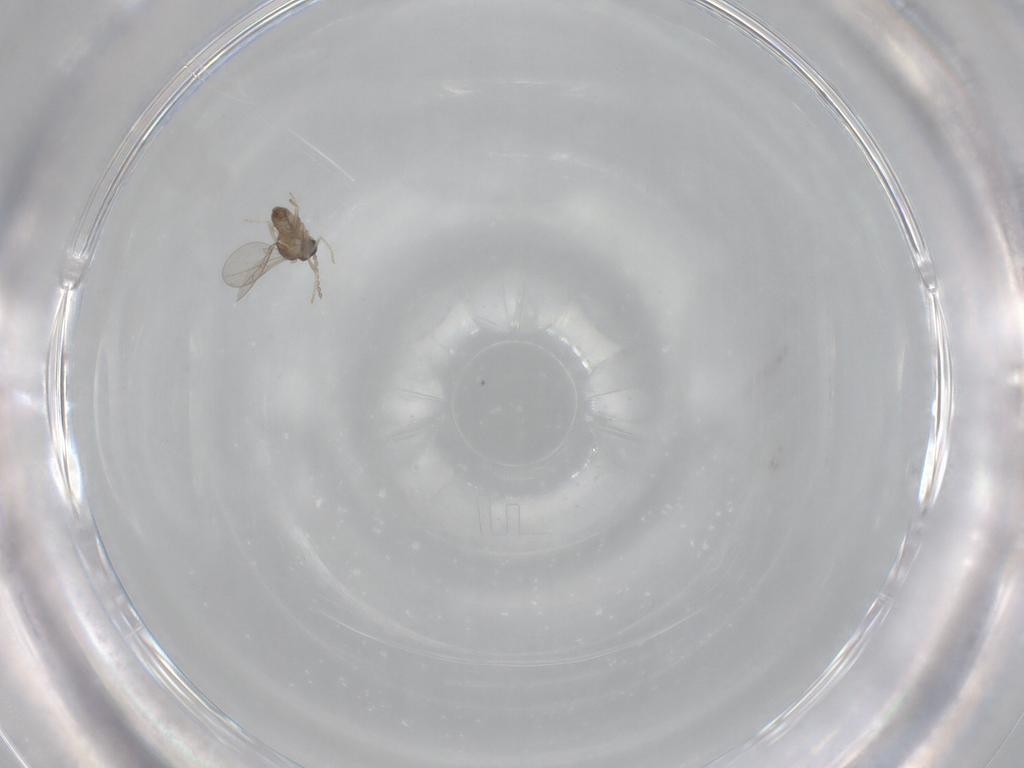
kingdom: Animalia
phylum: Arthropoda
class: Insecta
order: Diptera
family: Cecidomyiidae
